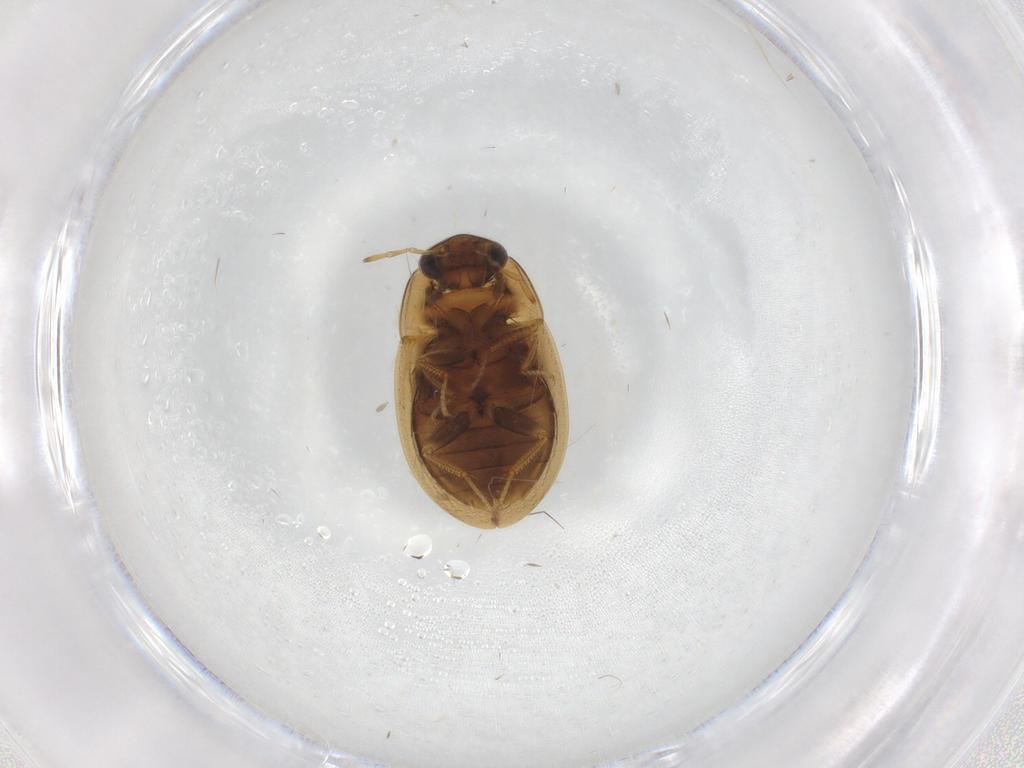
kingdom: Animalia
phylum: Arthropoda
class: Insecta
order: Coleoptera
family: Hydrophilidae
